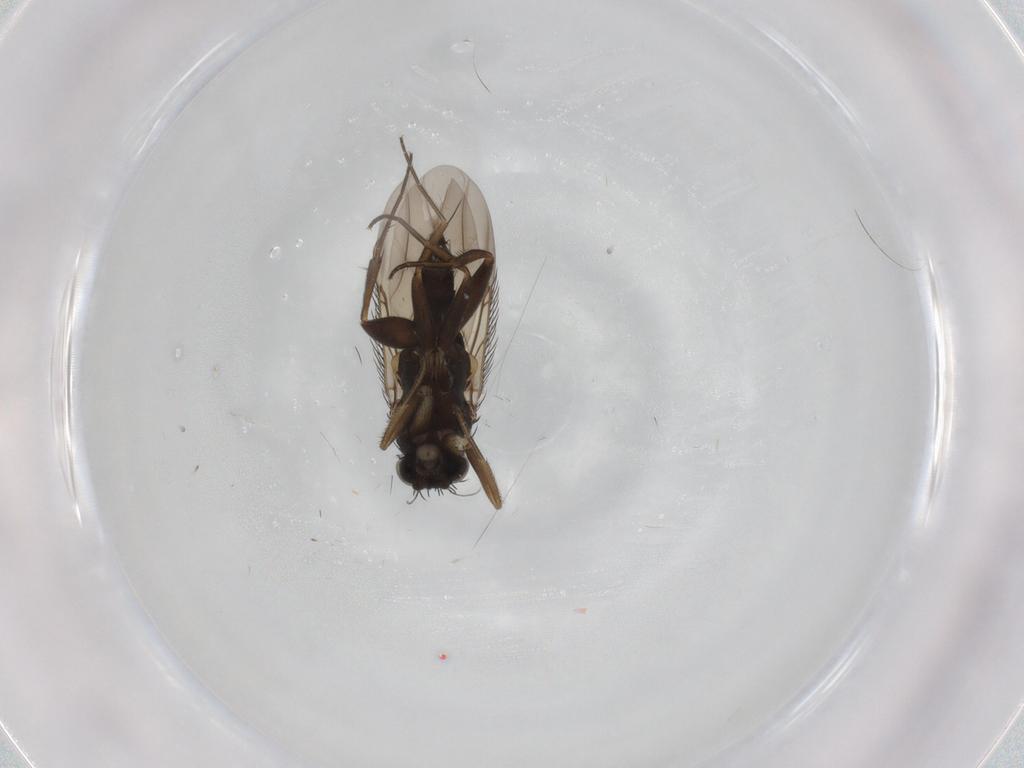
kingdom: Animalia
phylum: Arthropoda
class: Insecta
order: Diptera
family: Phoridae
